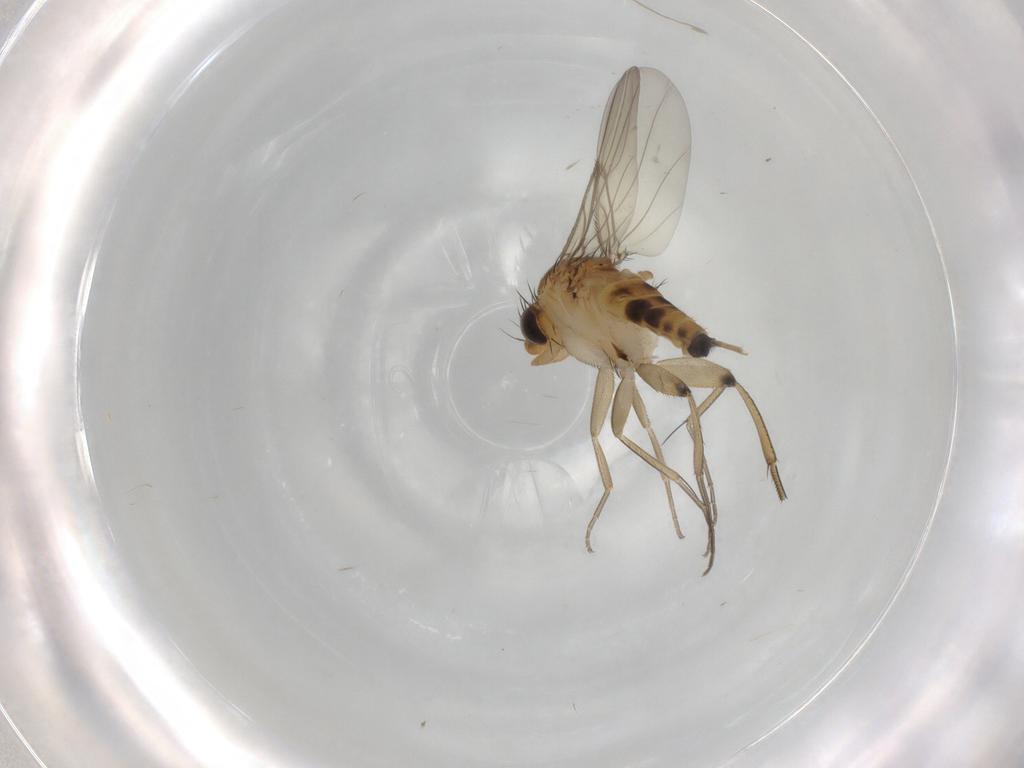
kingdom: Animalia
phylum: Arthropoda
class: Insecta
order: Diptera
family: Phoridae
